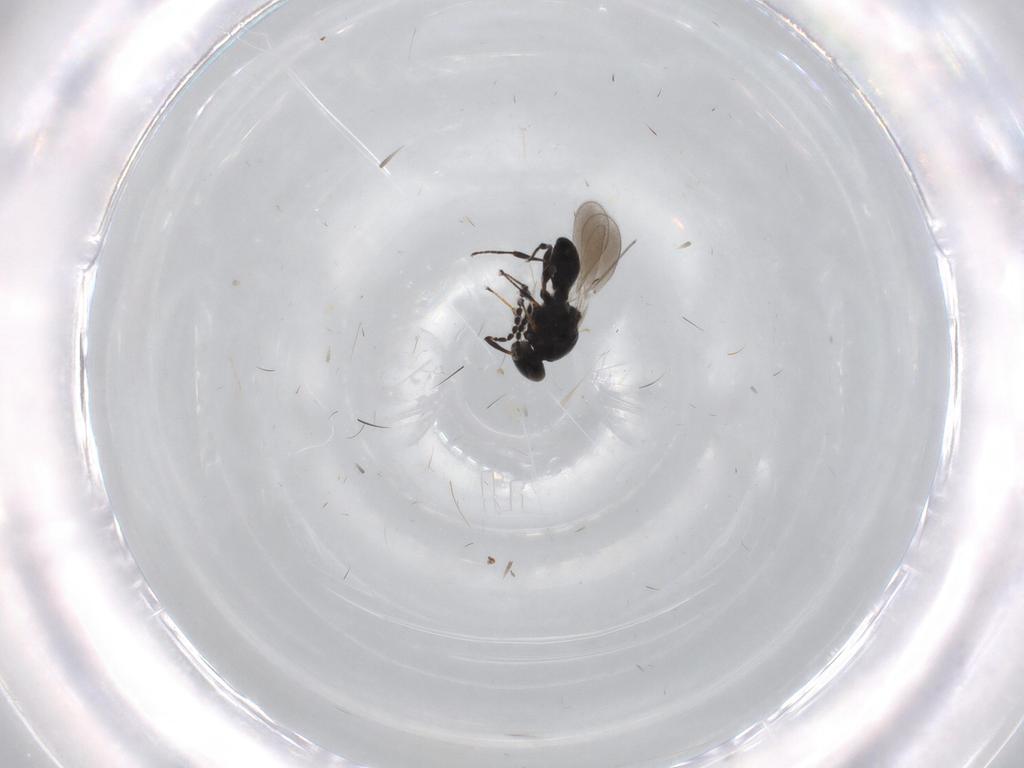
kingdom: Animalia
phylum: Arthropoda
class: Insecta
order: Hymenoptera
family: Platygastridae
